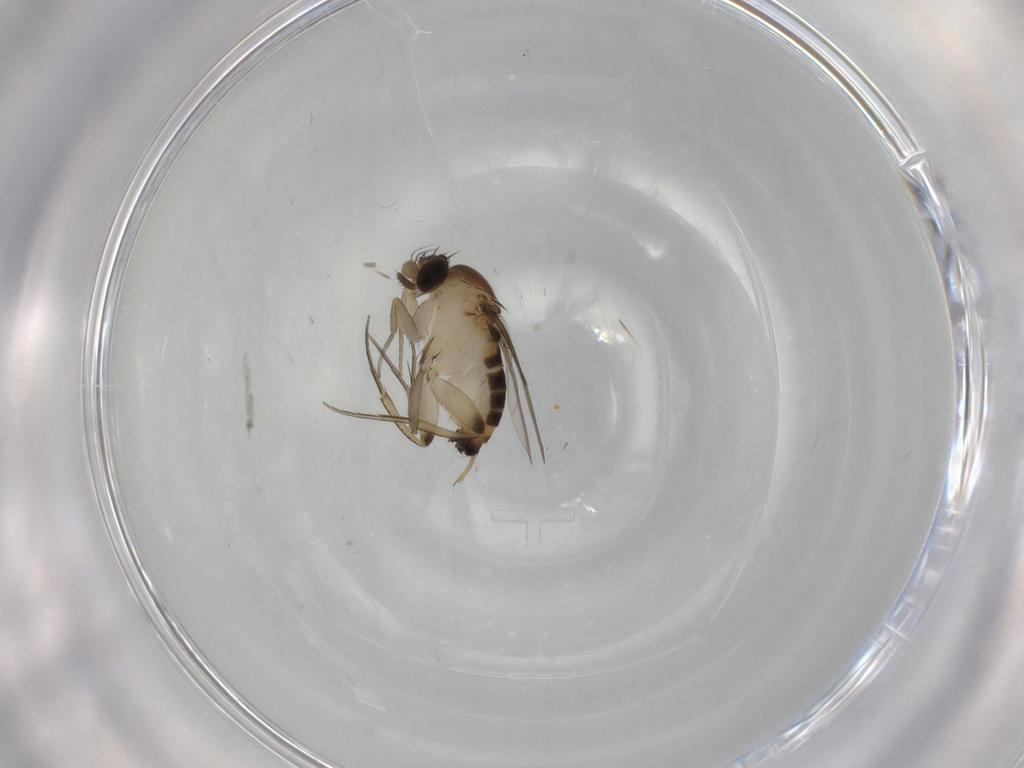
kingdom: Animalia
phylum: Arthropoda
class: Insecta
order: Diptera
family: Phoridae
